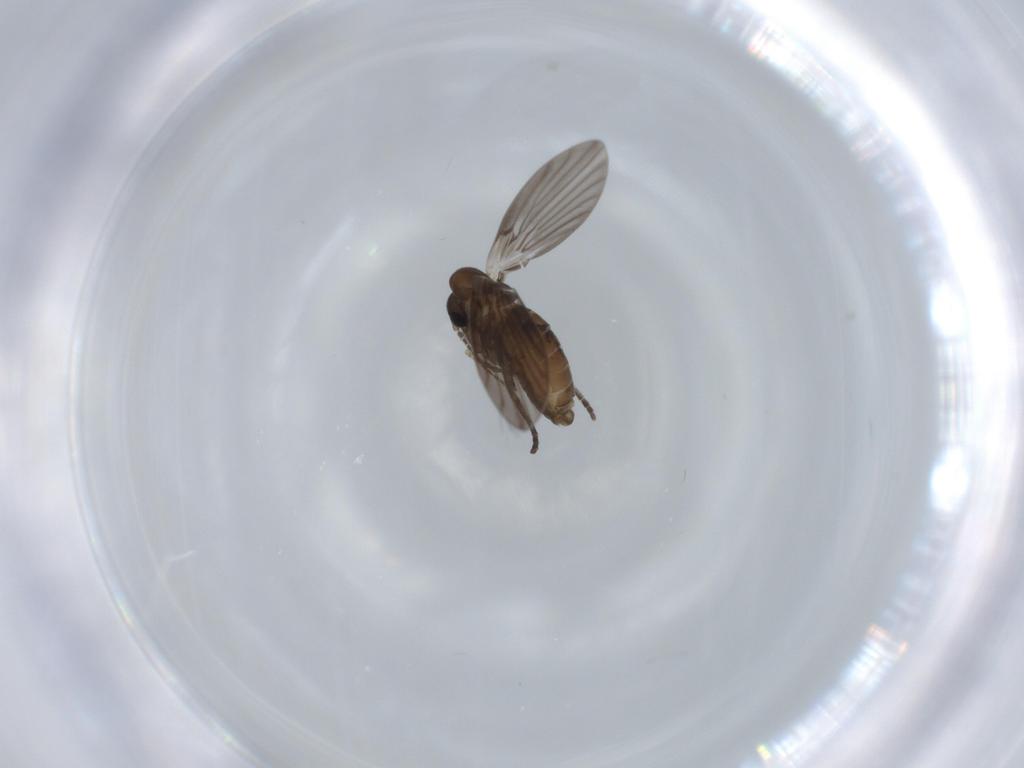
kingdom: Animalia
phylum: Arthropoda
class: Insecta
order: Diptera
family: Psychodidae
